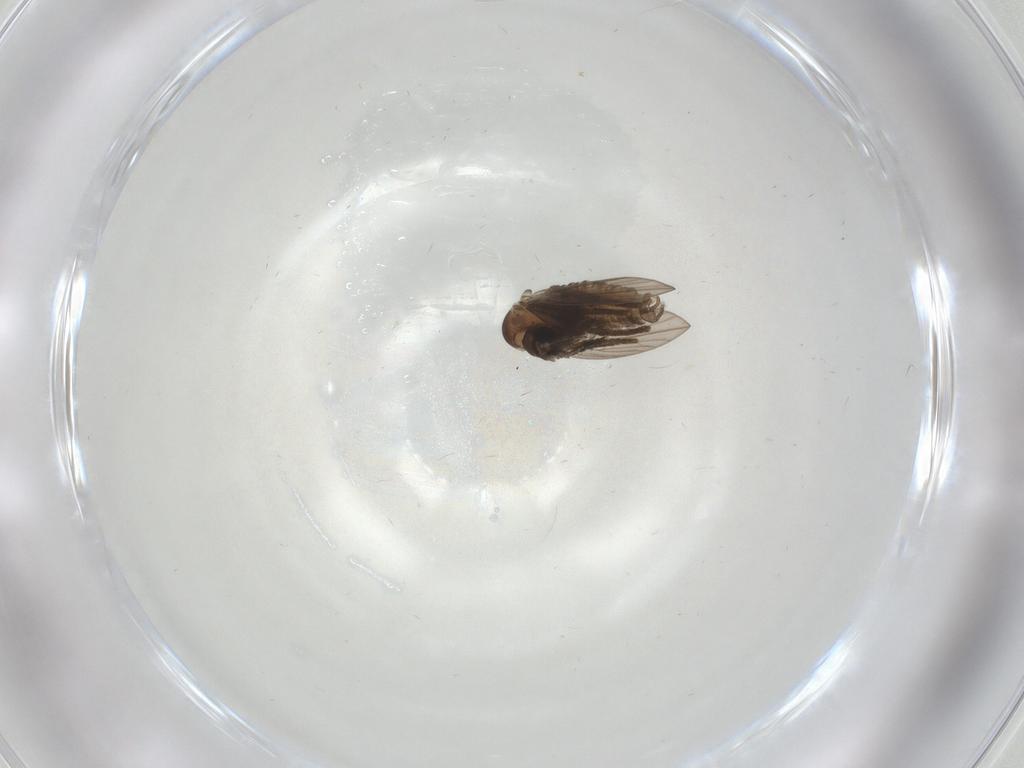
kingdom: Animalia
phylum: Arthropoda
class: Insecta
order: Diptera
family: Psychodidae
